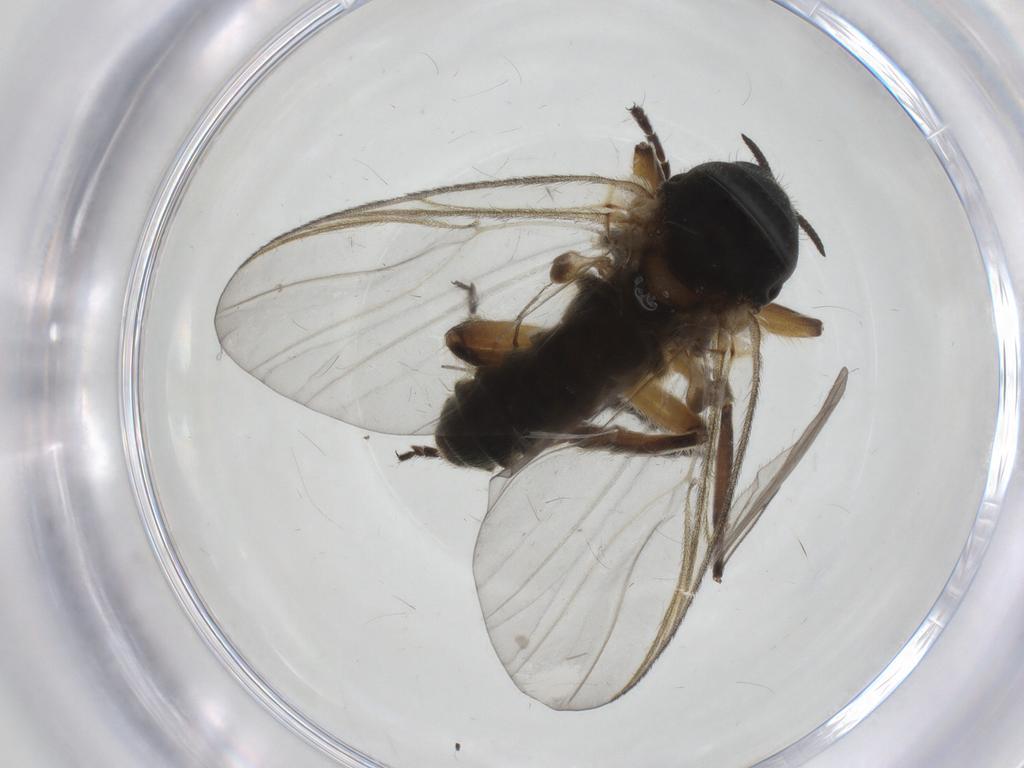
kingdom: Animalia
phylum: Arthropoda
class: Insecta
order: Diptera
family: Simuliidae
